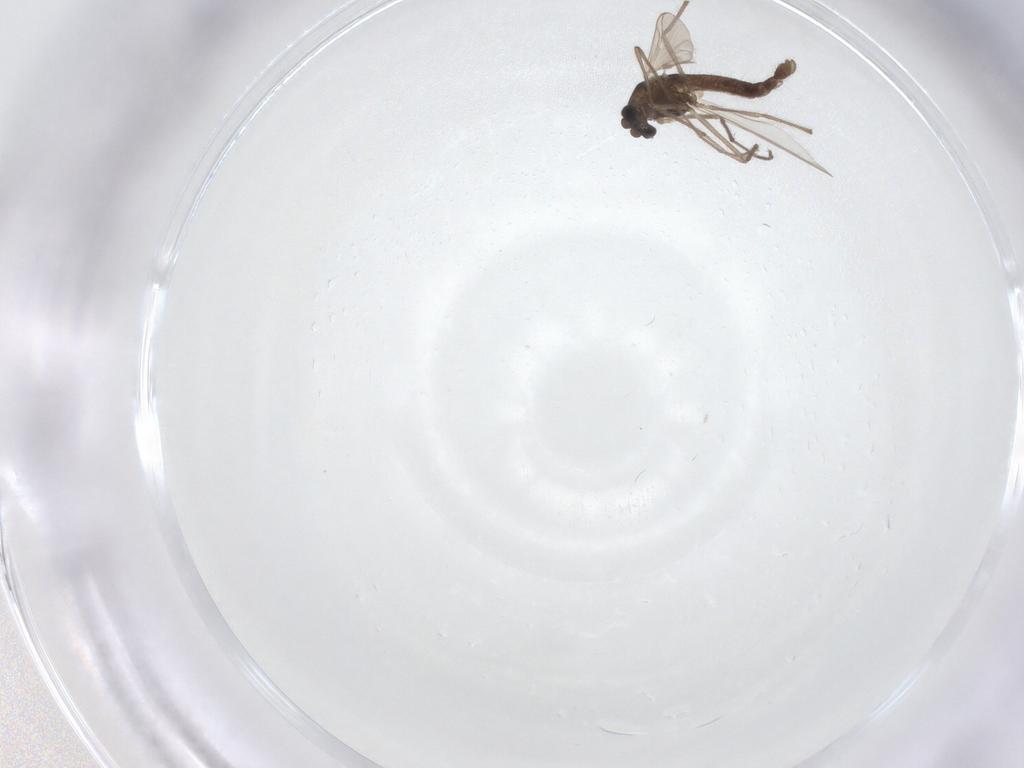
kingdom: Animalia
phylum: Arthropoda
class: Insecta
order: Diptera
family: Chironomidae
